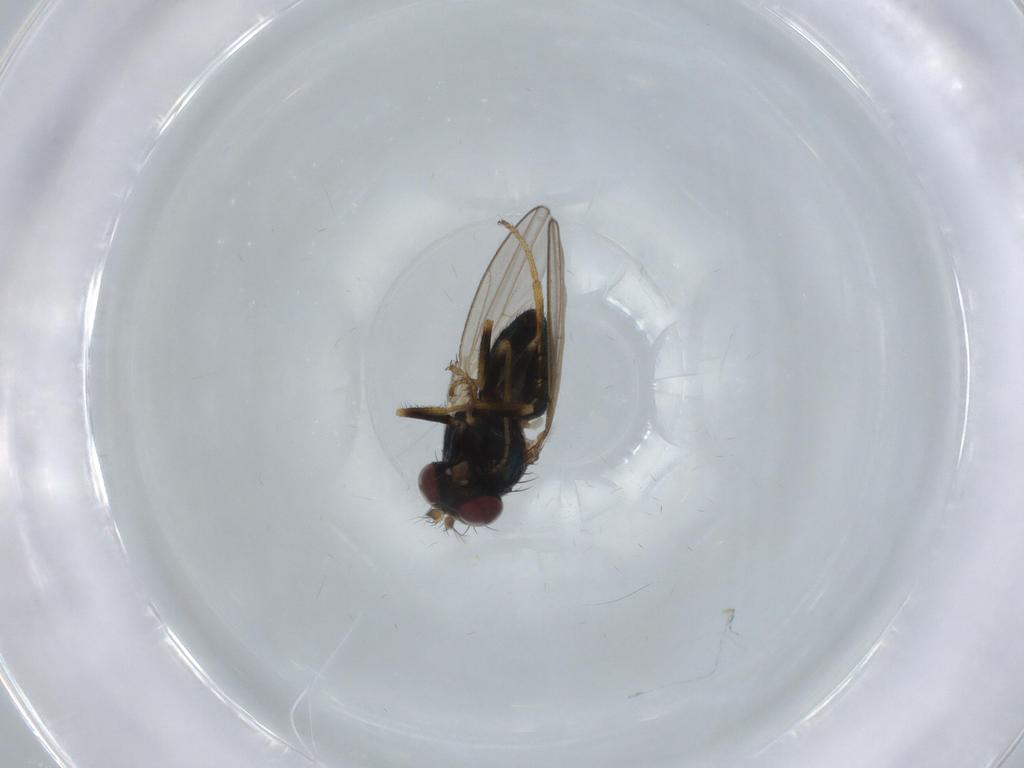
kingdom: Animalia
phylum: Arthropoda
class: Insecta
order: Diptera
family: Ephydridae
